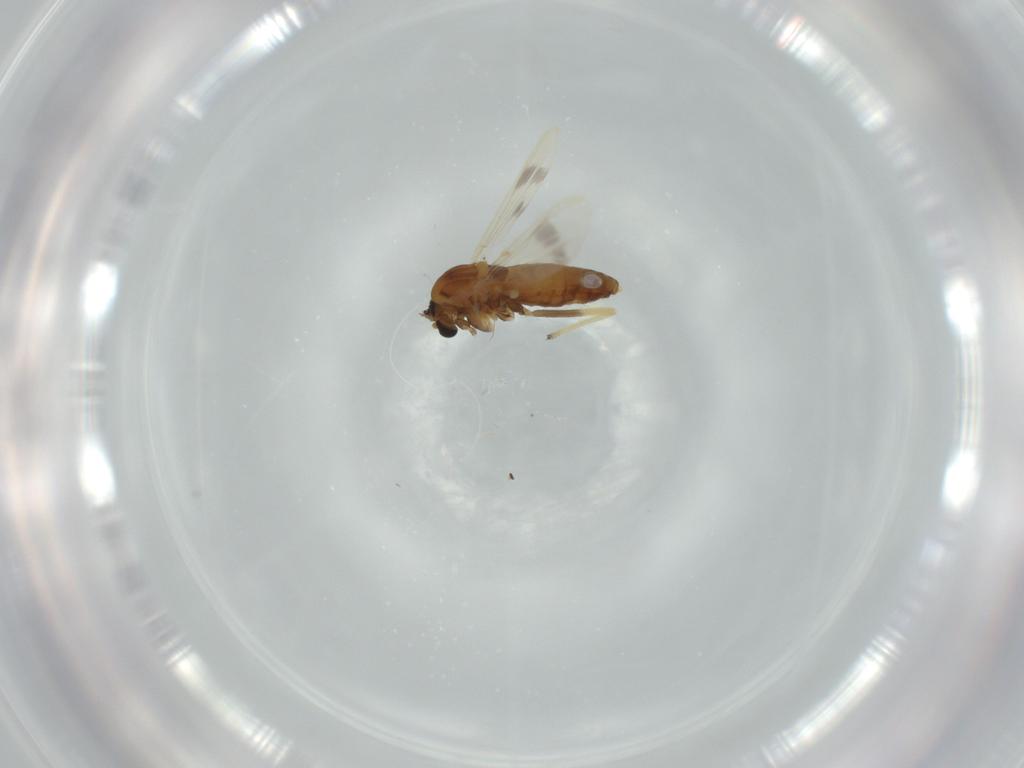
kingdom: Animalia
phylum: Arthropoda
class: Insecta
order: Diptera
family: Chironomidae
